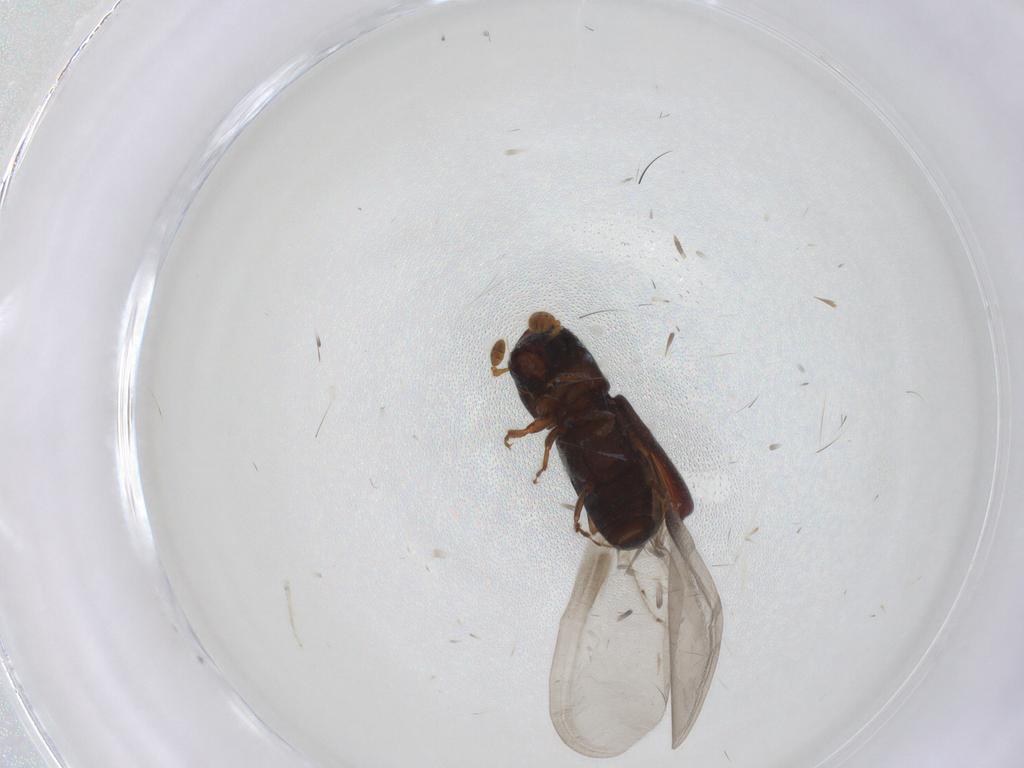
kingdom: Animalia
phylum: Arthropoda
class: Insecta
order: Coleoptera
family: Curculionidae
